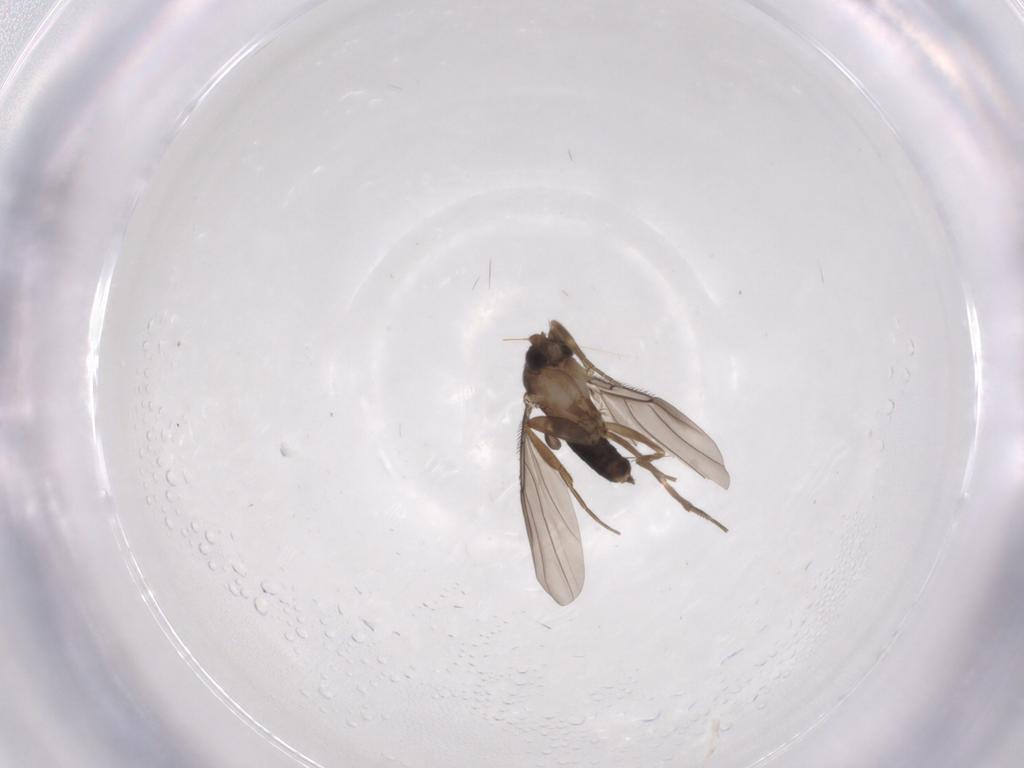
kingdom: Animalia
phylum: Arthropoda
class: Insecta
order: Diptera
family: Phoridae
